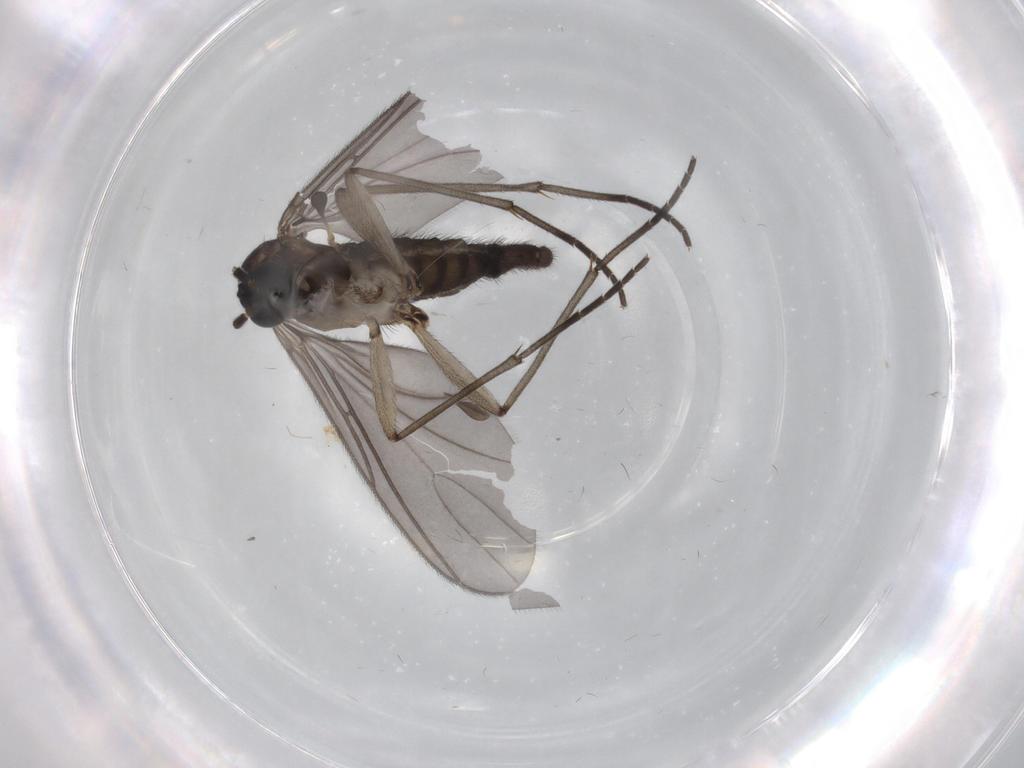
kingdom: Animalia
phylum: Arthropoda
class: Insecta
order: Diptera
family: Sciaridae
